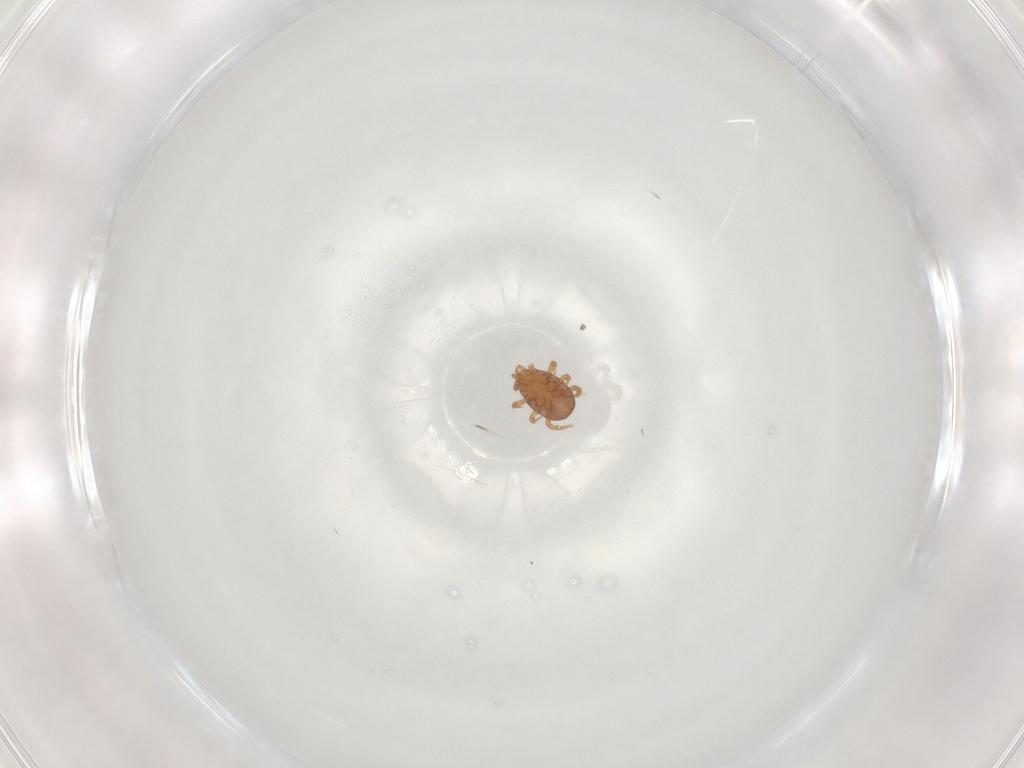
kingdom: Animalia
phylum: Arthropoda
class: Arachnida
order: Mesostigmata
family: Eviphididae
